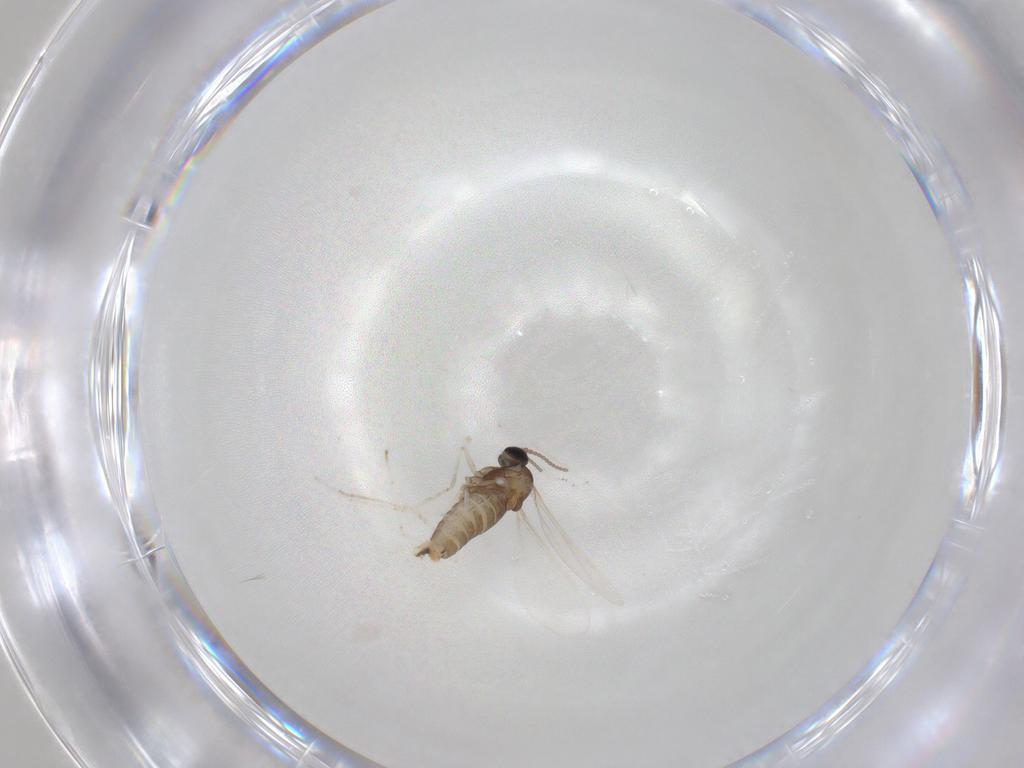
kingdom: Animalia
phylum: Arthropoda
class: Insecta
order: Diptera
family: Cecidomyiidae
